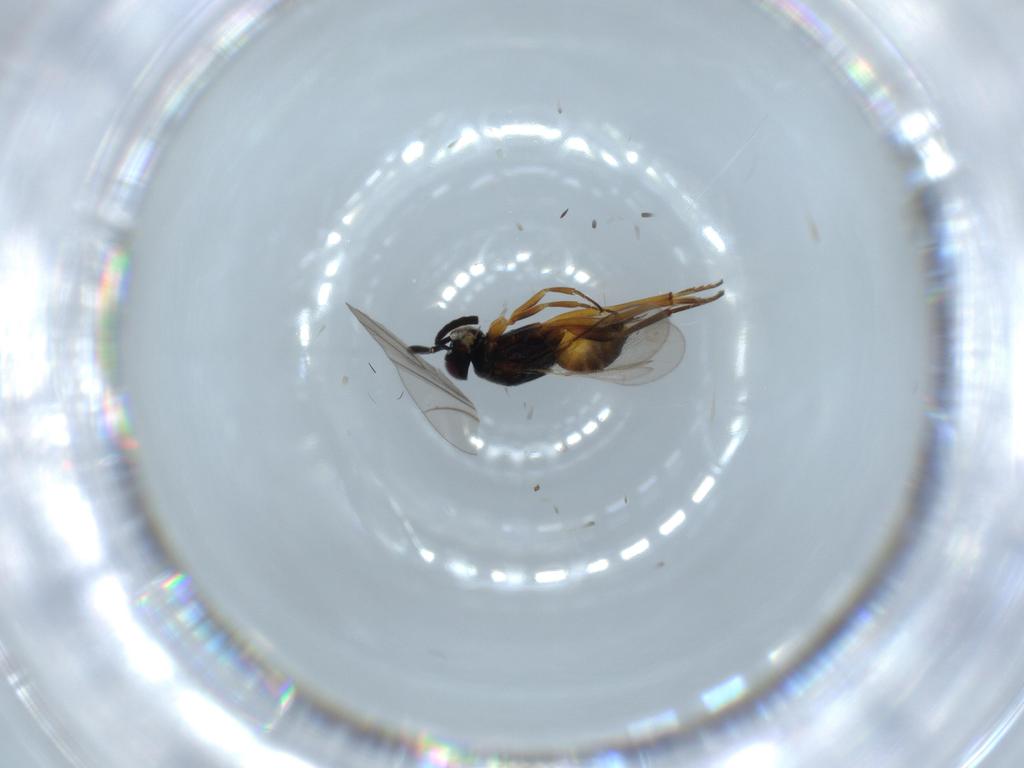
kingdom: Animalia
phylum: Arthropoda
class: Insecta
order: Hymenoptera
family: Encyrtidae
